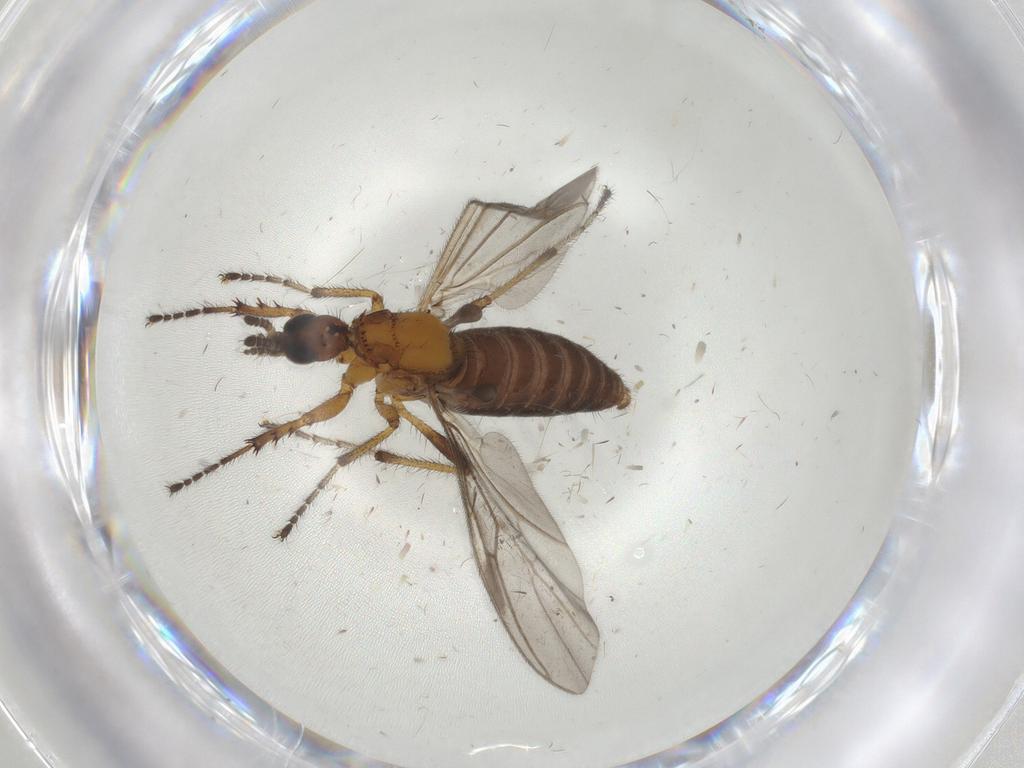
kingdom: Animalia
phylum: Arthropoda
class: Insecta
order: Diptera
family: Bibionidae
